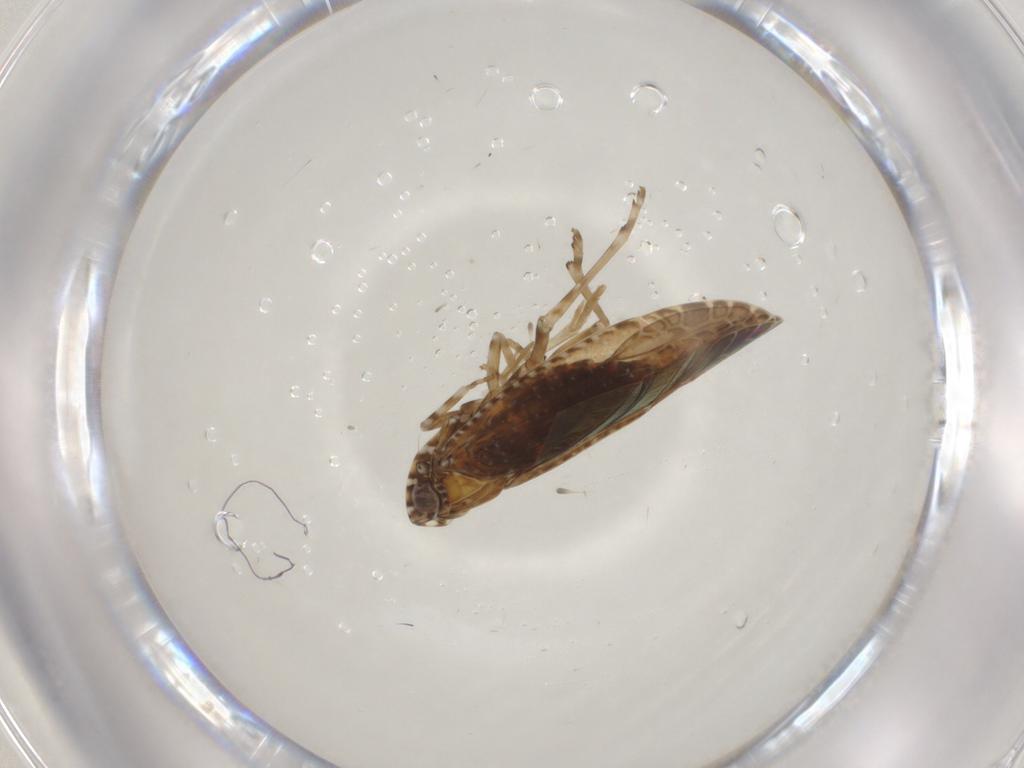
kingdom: Animalia
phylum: Arthropoda
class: Insecta
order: Hemiptera
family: Achilidae
